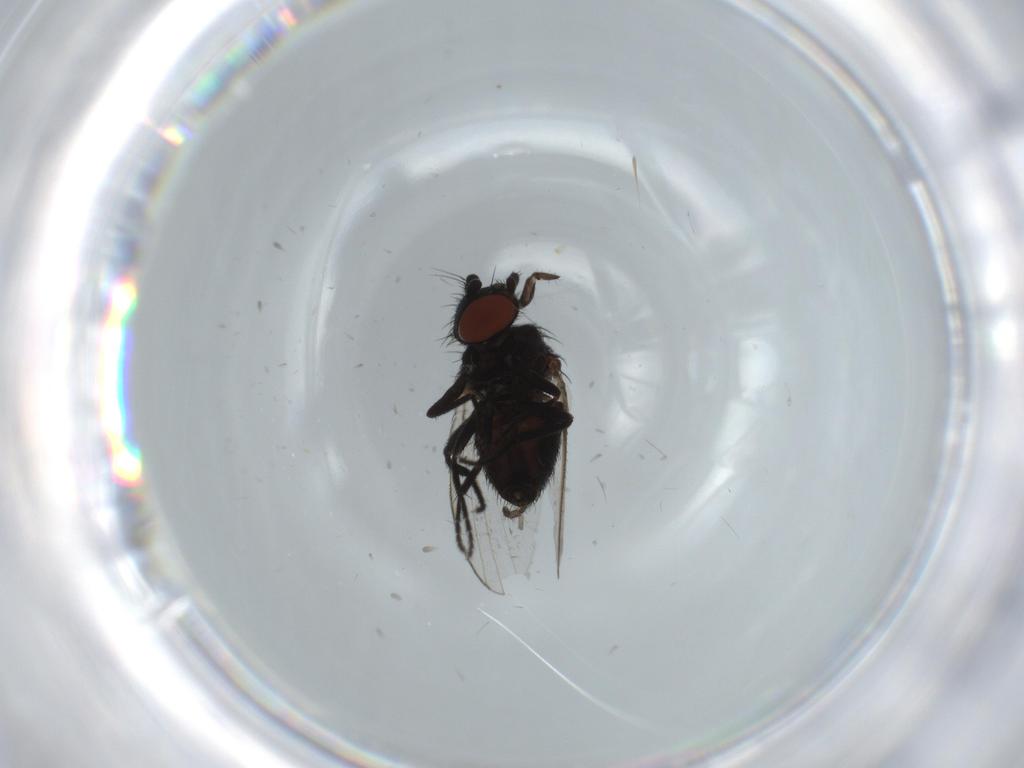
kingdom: Animalia
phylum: Arthropoda
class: Insecta
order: Diptera
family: Limoniidae
